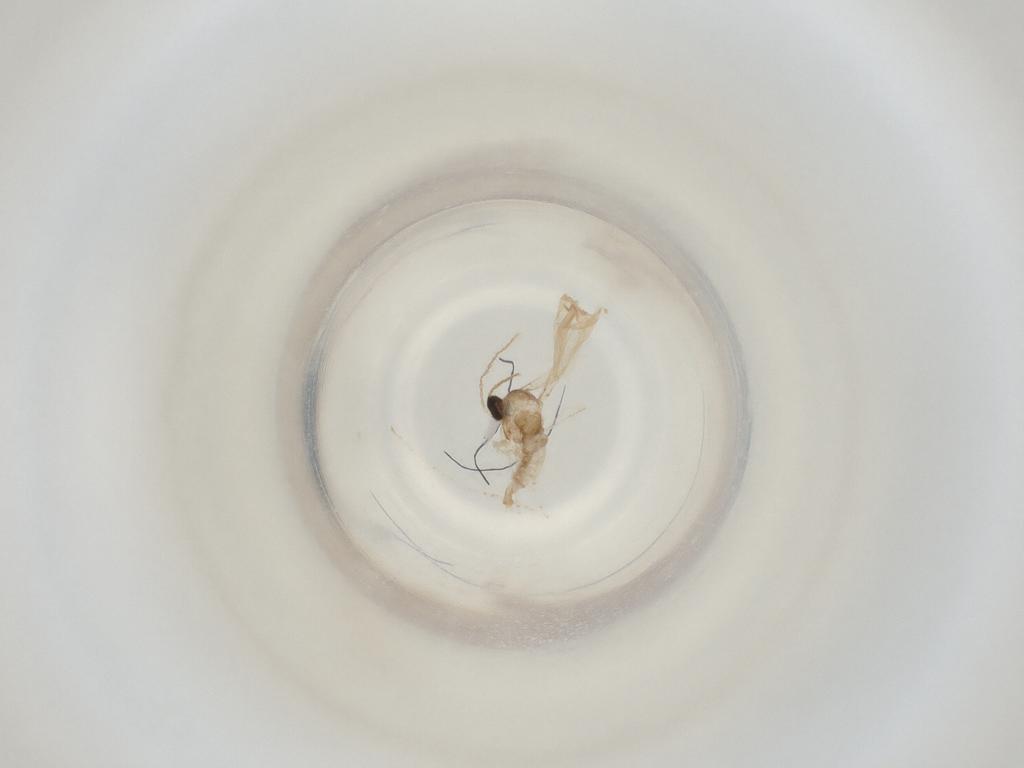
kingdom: Animalia
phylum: Arthropoda
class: Insecta
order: Diptera
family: Cecidomyiidae
